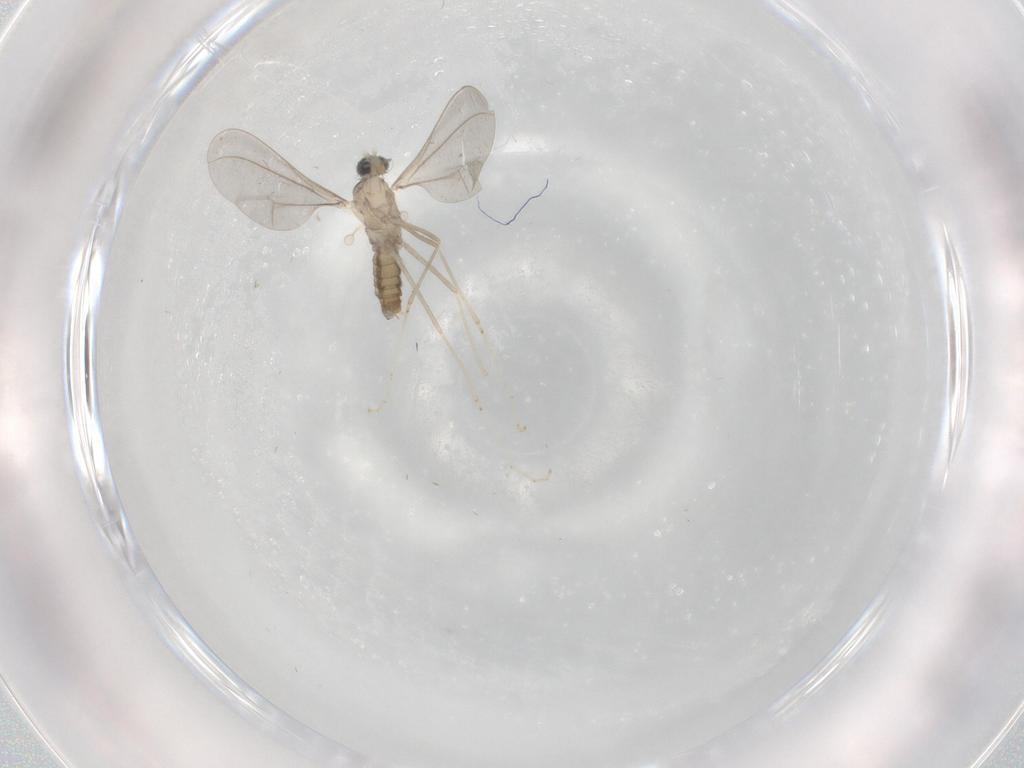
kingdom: Animalia
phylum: Arthropoda
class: Insecta
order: Diptera
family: Cecidomyiidae
